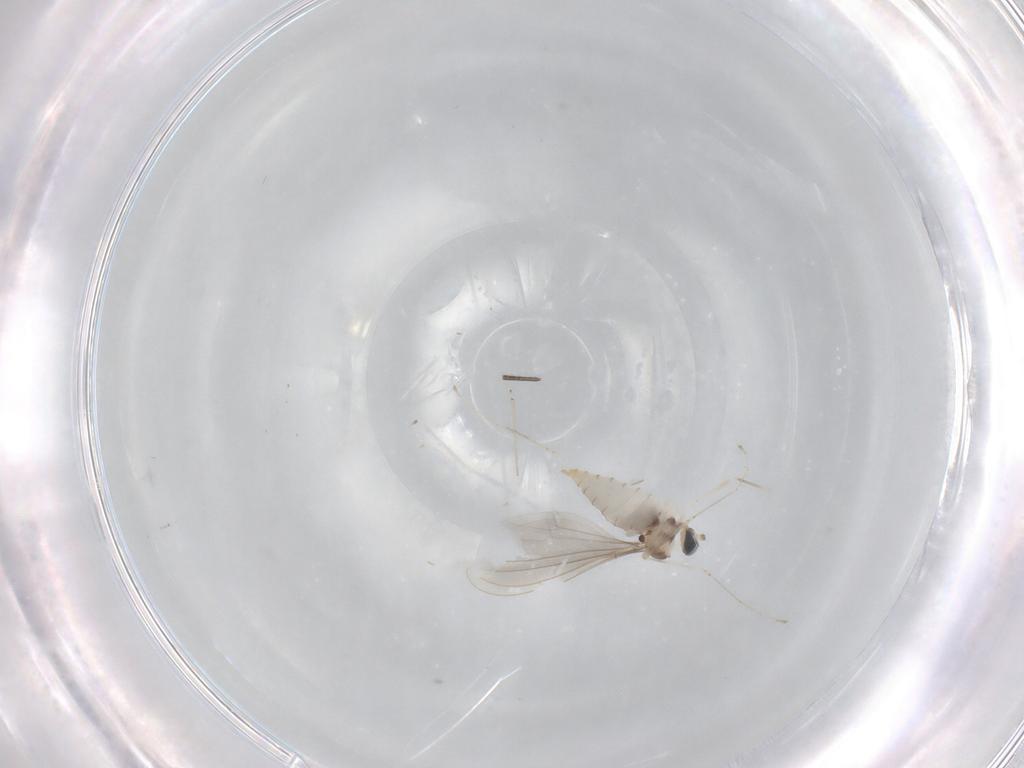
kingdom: Animalia
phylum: Arthropoda
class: Insecta
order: Diptera
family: Cecidomyiidae
